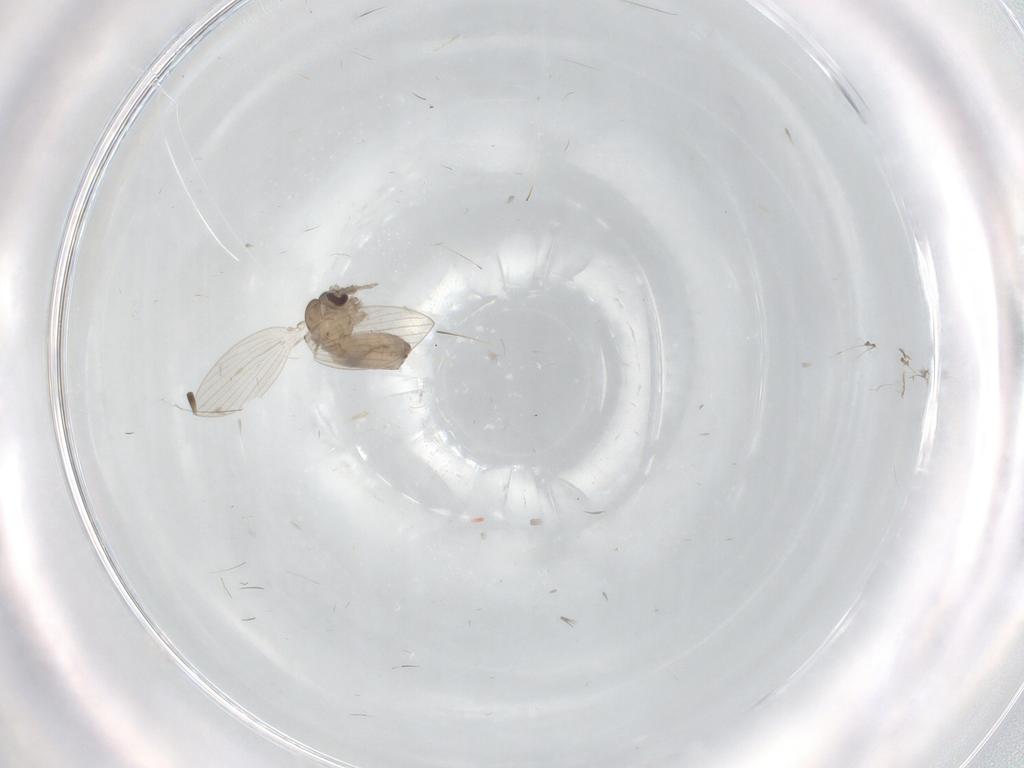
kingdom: Animalia
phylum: Arthropoda
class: Insecta
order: Diptera
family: Psychodidae
